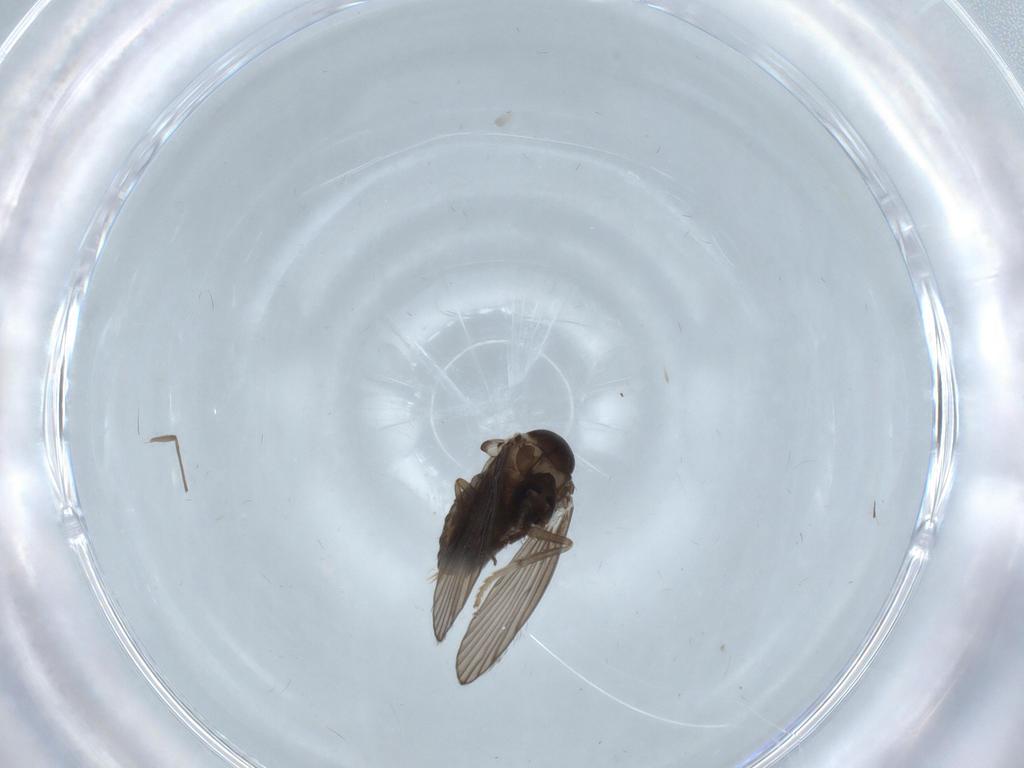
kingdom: Animalia
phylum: Arthropoda
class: Insecta
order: Diptera
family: Psychodidae
